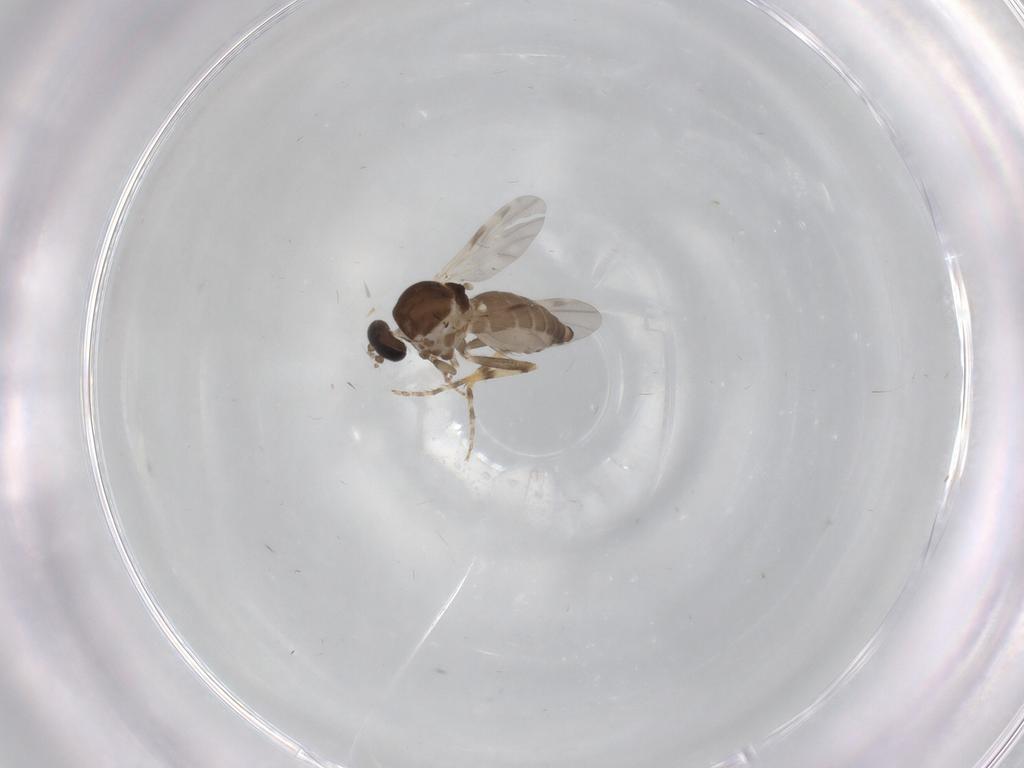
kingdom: Animalia
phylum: Arthropoda
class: Insecta
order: Diptera
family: Ceratopogonidae
